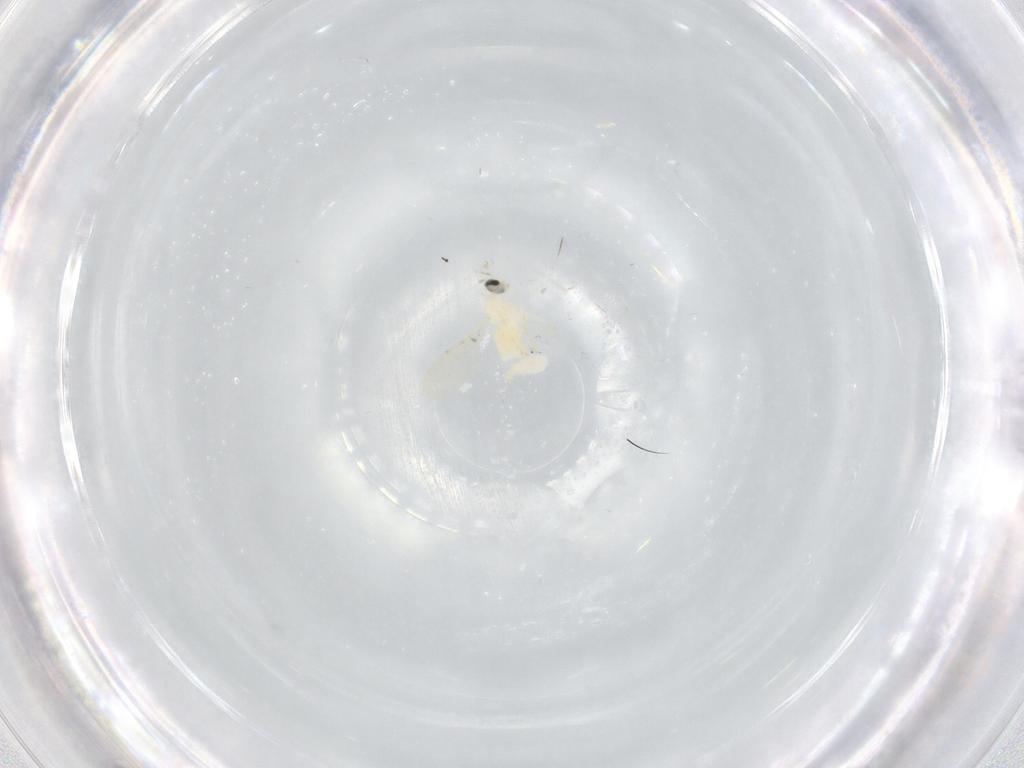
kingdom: Animalia
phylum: Arthropoda
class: Insecta
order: Diptera
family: Cecidomyiidae
